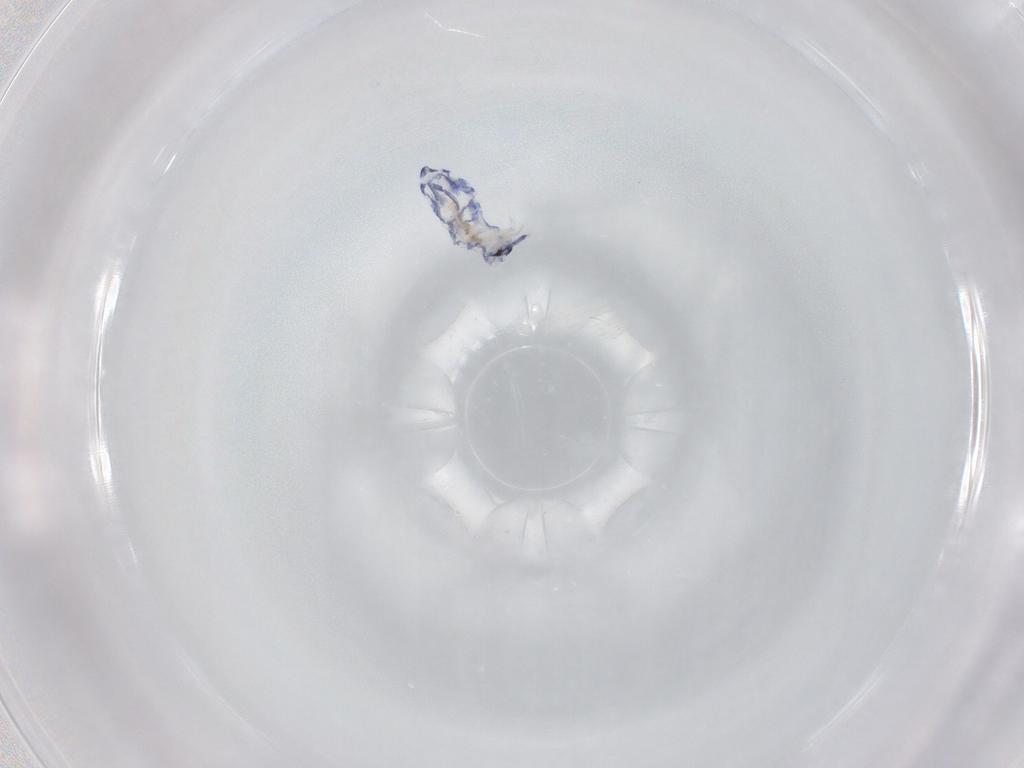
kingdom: Animalia
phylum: Arthropoda
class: Collembola
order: Entomobryomorpha
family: Entomobryidae
